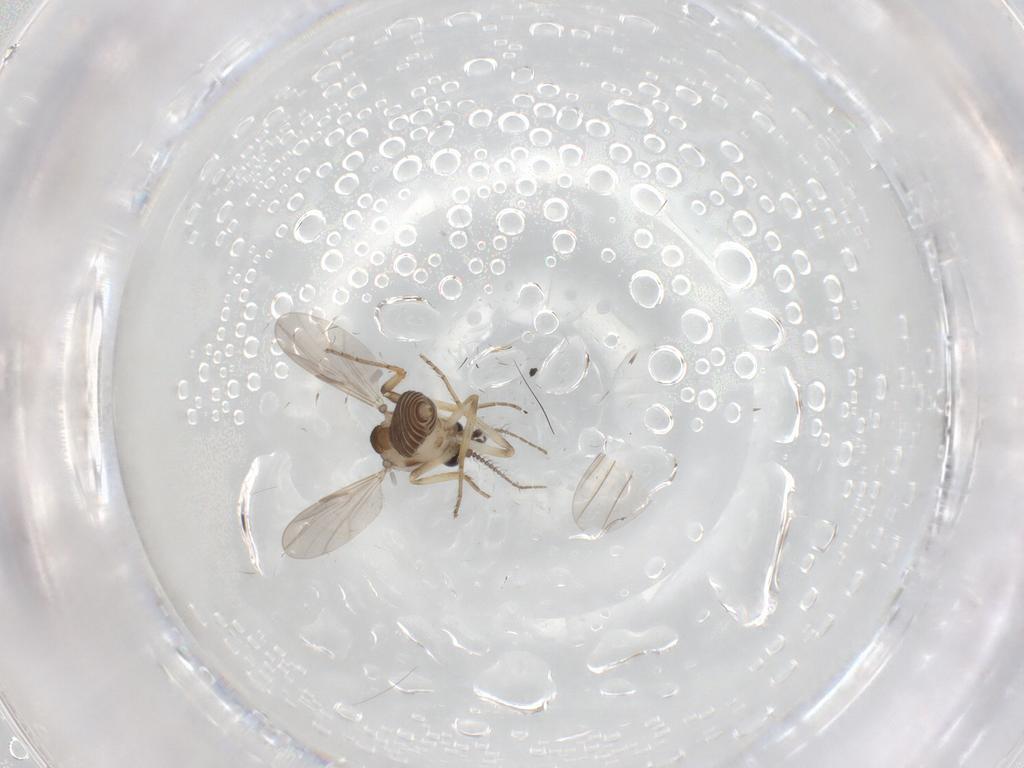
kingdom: Animalia
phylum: Arthropoda
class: Insecta
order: Diptera
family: Ceratopogonidae
